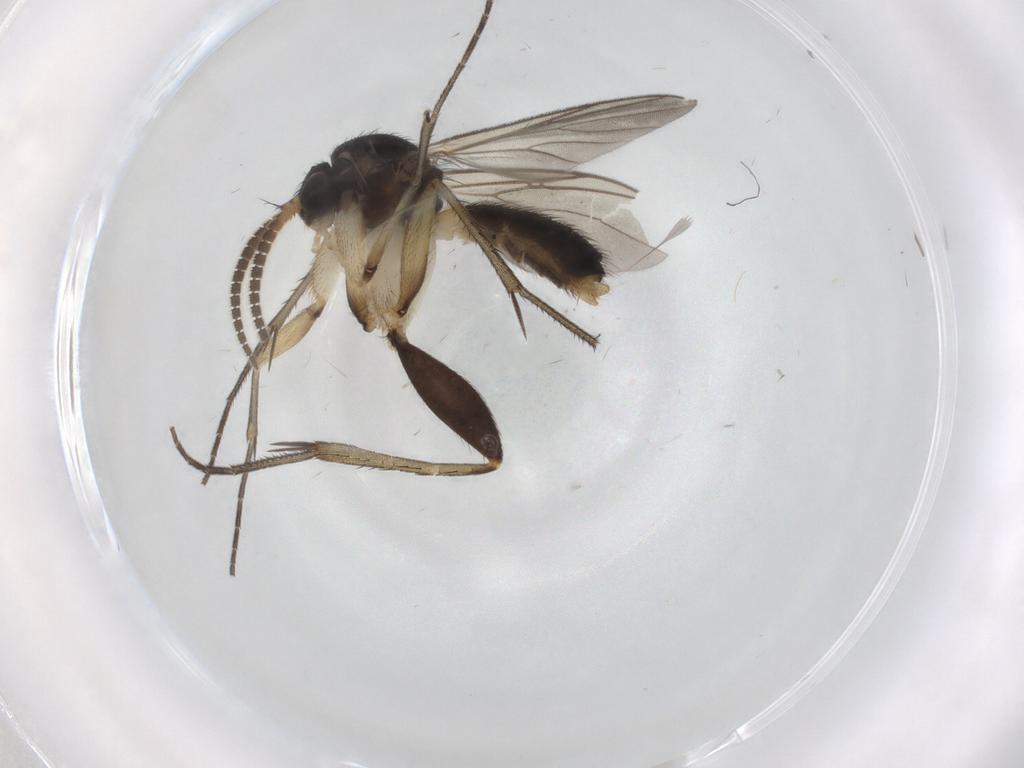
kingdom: Animalia
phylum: Arthropoda
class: Insecta
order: Diptera
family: Mycetophilidae
